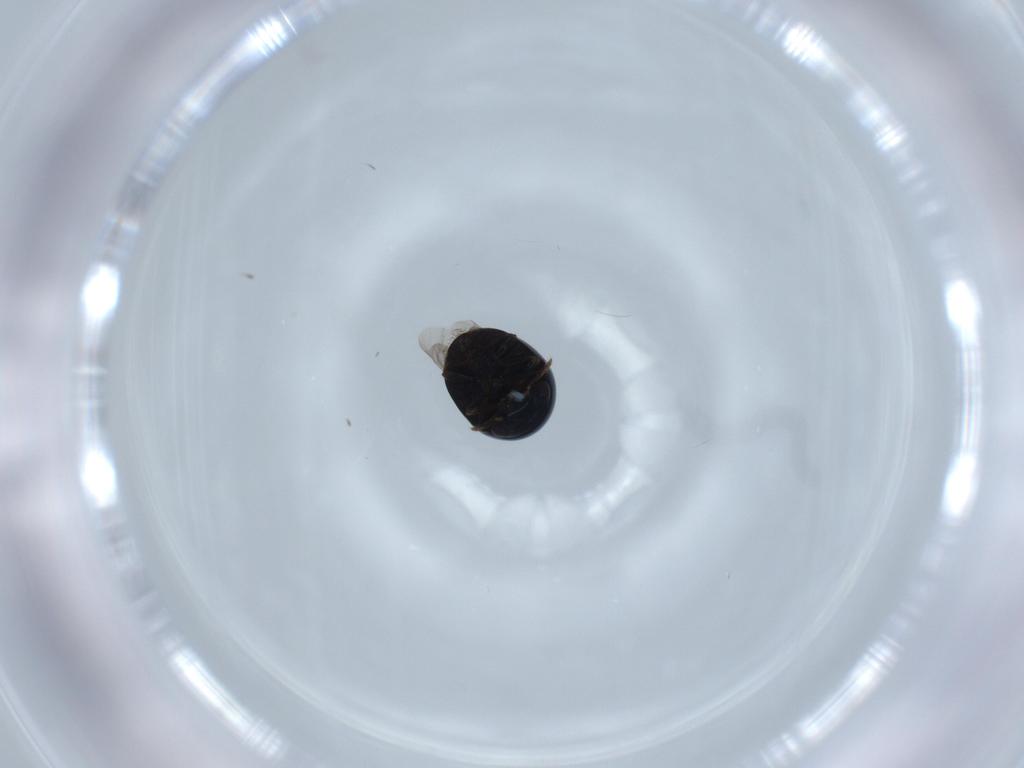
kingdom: Animalia
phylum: Arthropoda
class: Insecta
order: Coleoptera
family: Cybocephalidae
